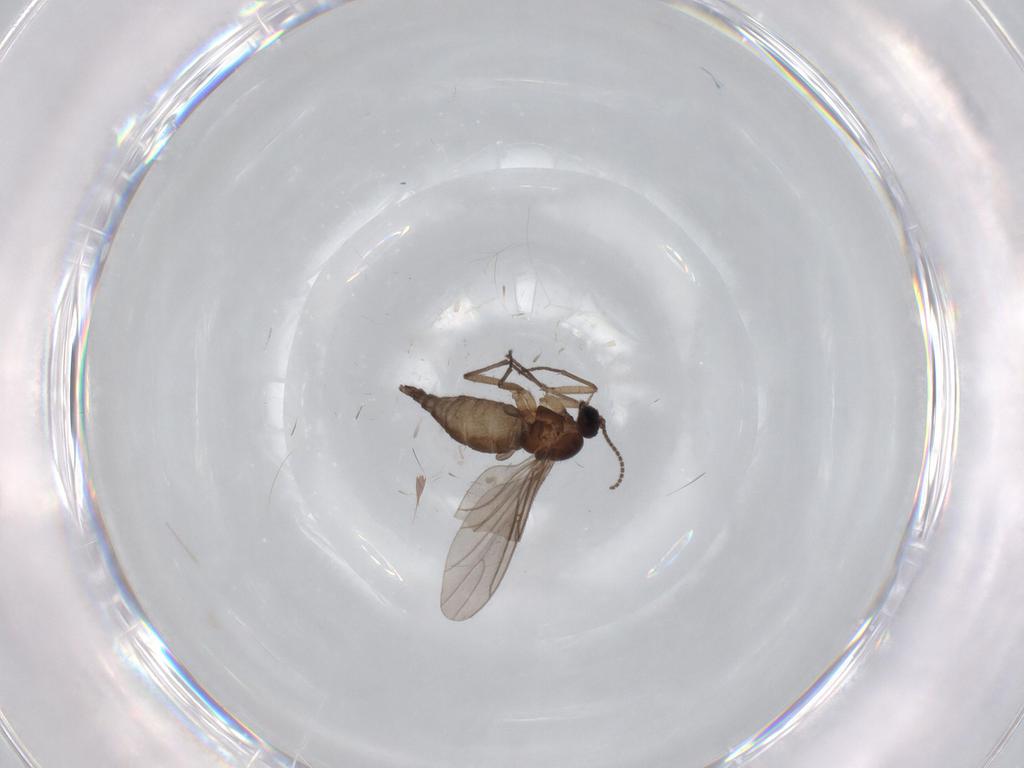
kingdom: Animalia
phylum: Arthropoda
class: Insecta
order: Diptera
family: Sciaridae
